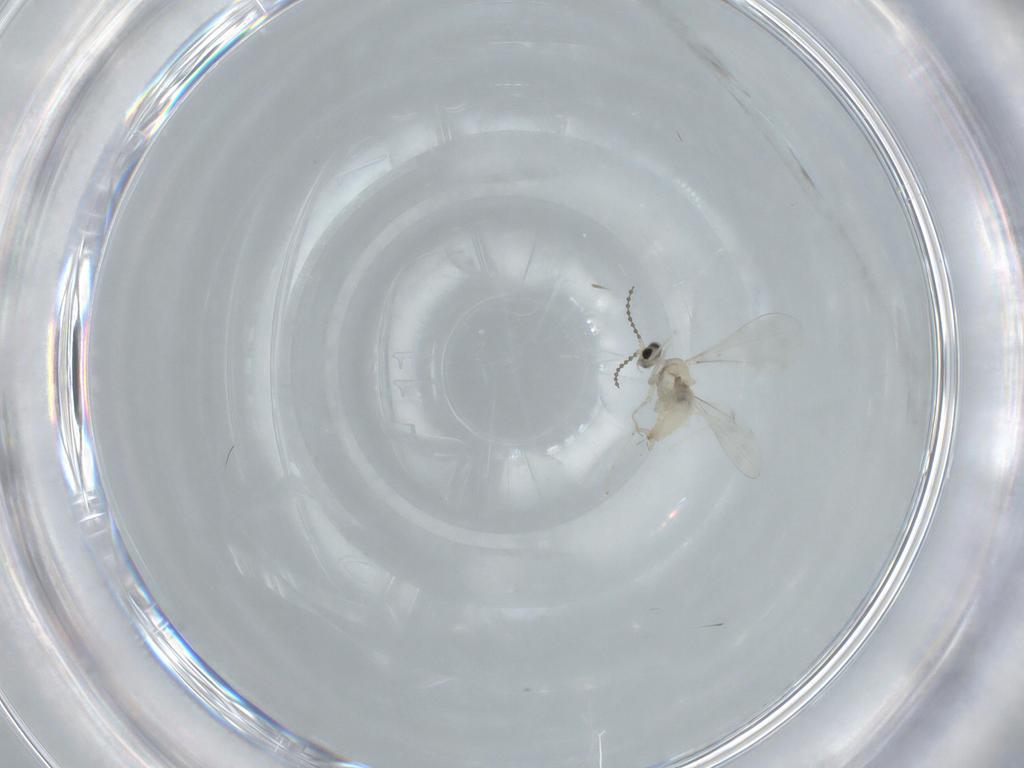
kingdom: Animalia
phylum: Arthropoda
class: Insecta
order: Diptera
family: Cecidomyiidae
